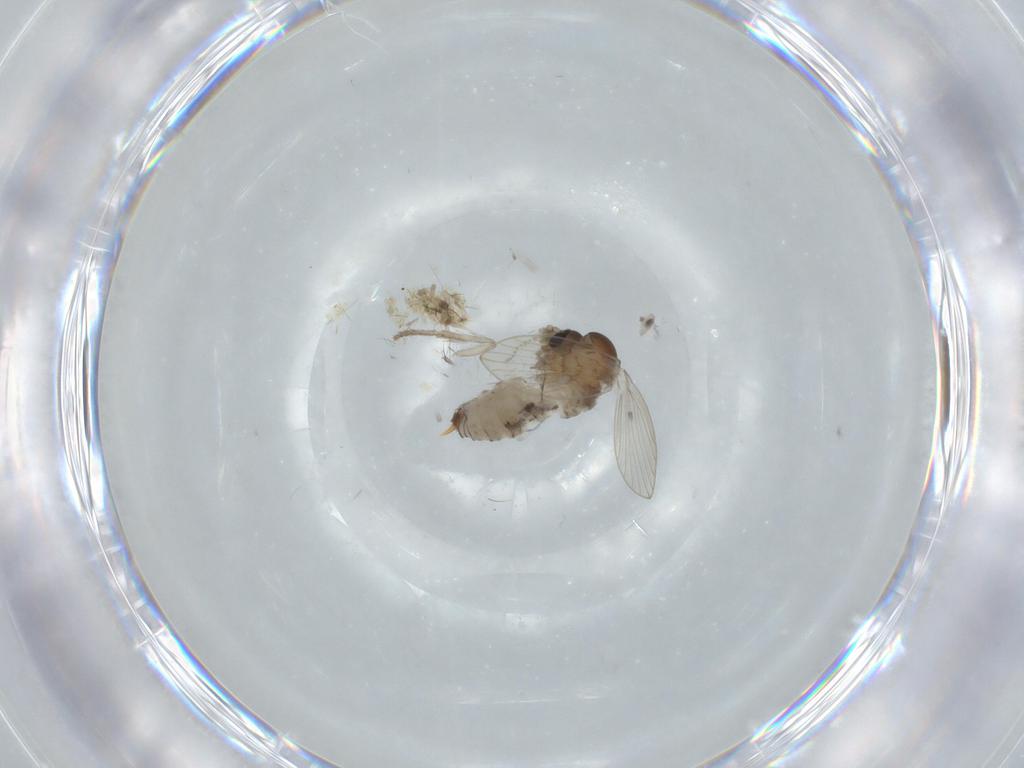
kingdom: Animalia
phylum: Arthropoda
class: Insecta
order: Diptera
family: Psychodidae
